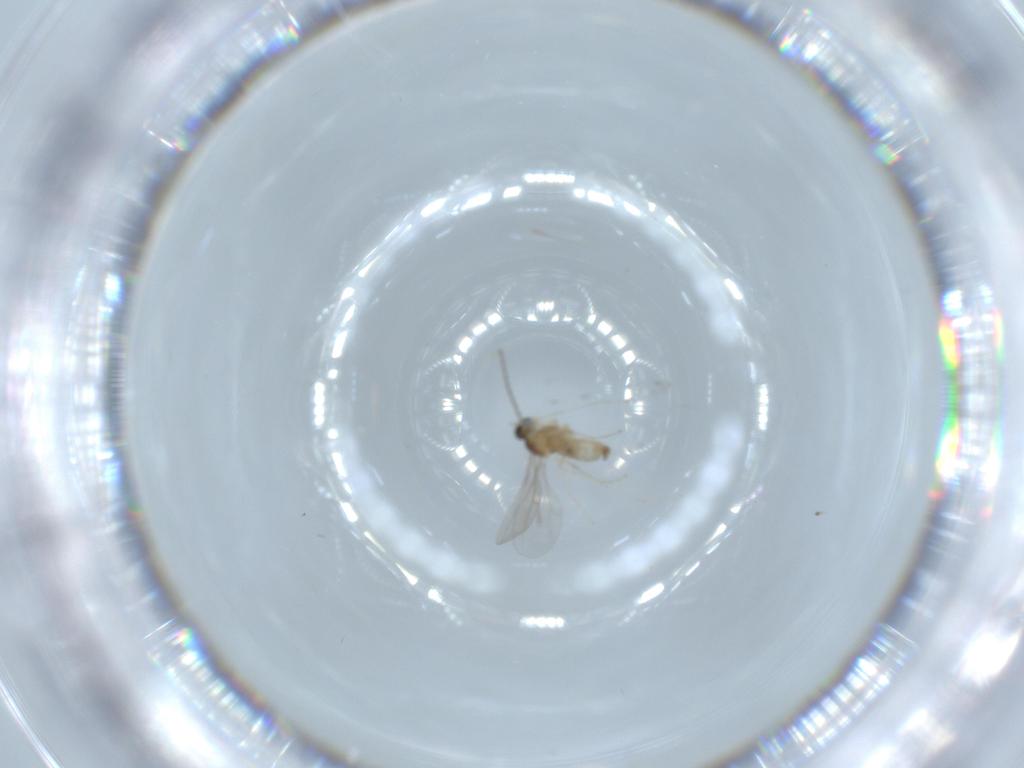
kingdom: Animalia
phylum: Arthropoda
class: Insecta
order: Diptera
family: Cecidomyiidae
